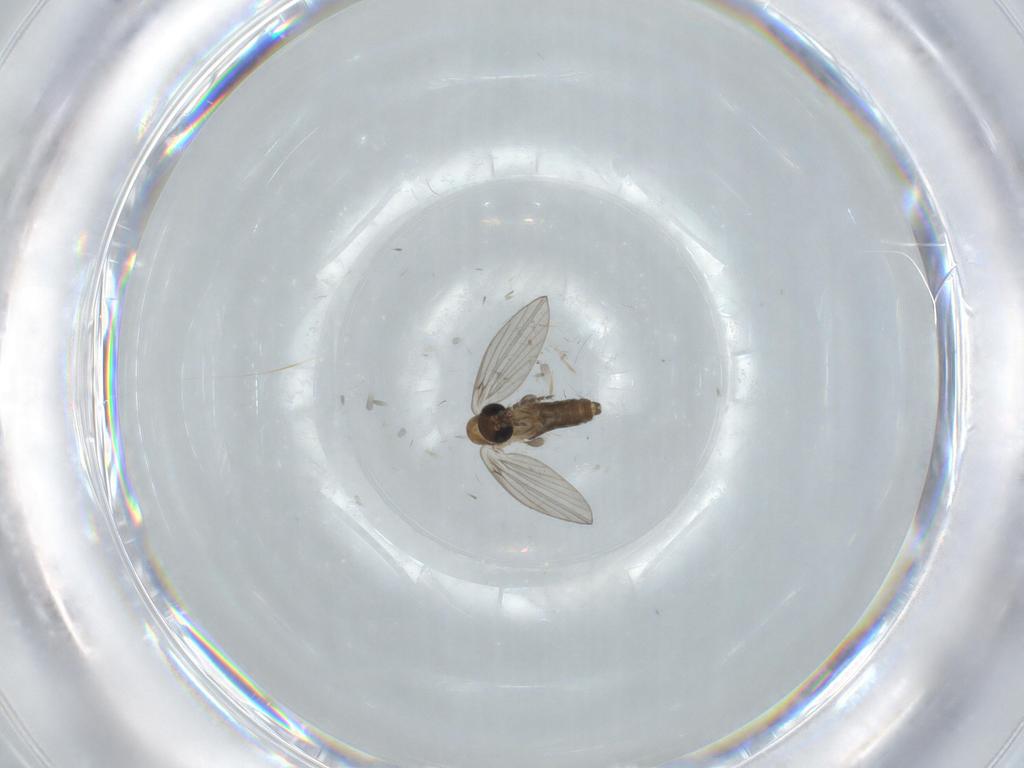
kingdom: Animalia
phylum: Arthropoda
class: Insecta
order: Diptera
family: Psychodidae
